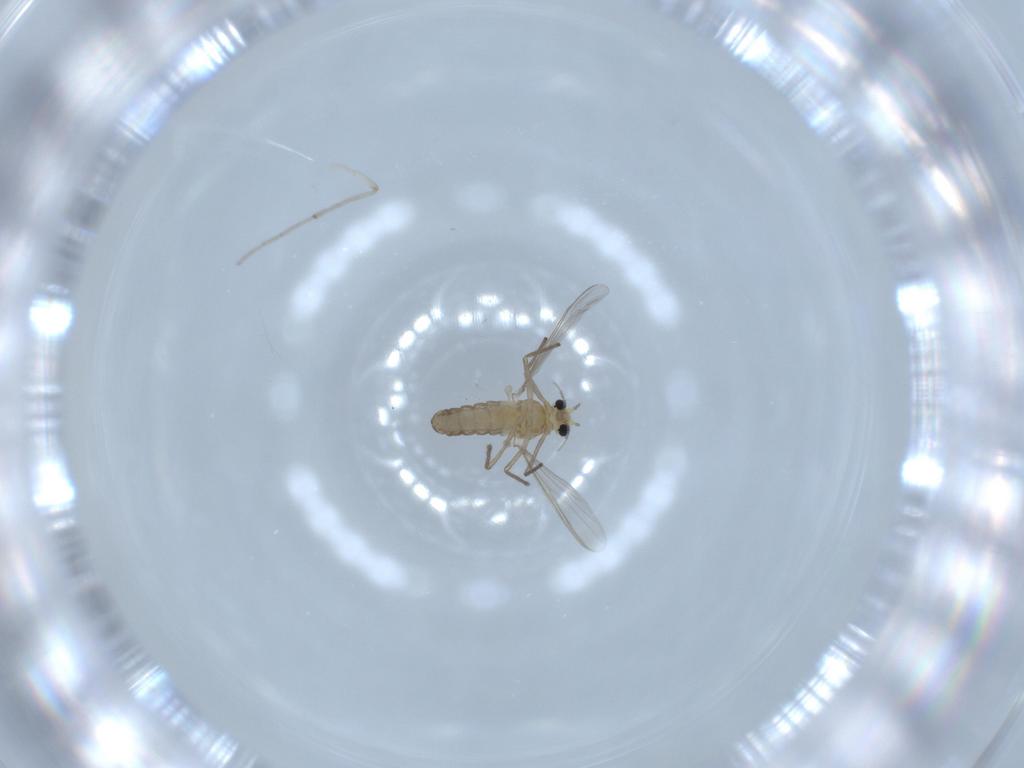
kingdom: Animalia
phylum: Arthropoda
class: Insecta
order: Diptera
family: Chironomidae
